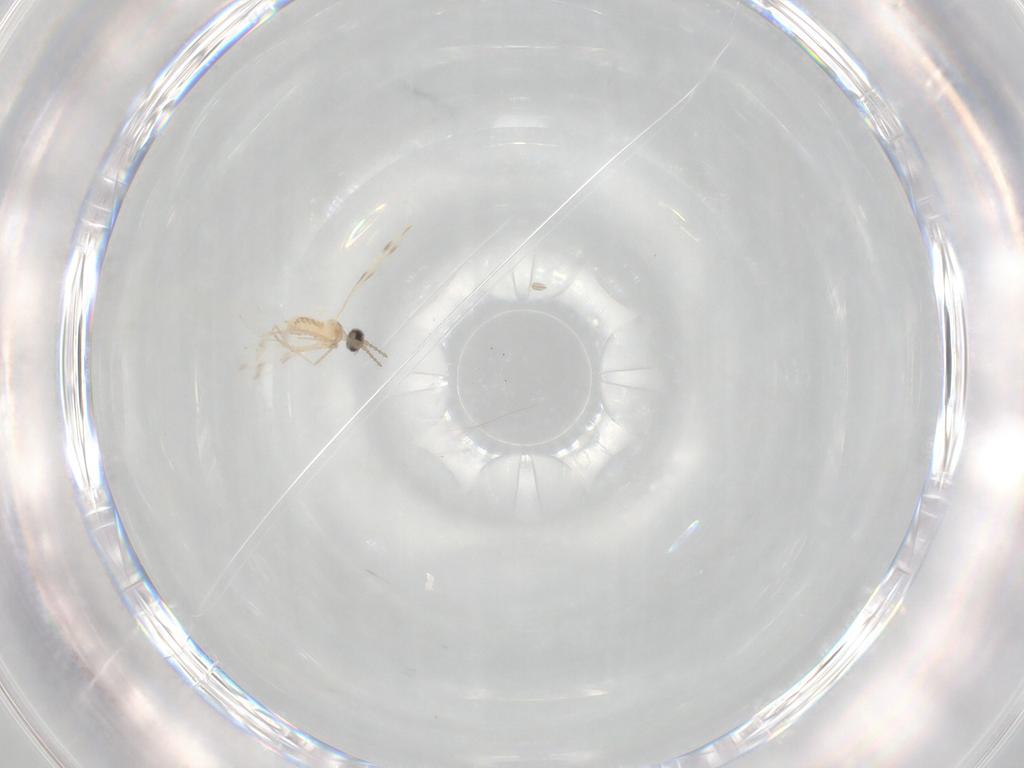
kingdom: Animalia
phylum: Arthropoda
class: Insecta
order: Diptera
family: Cecidomyiidae
